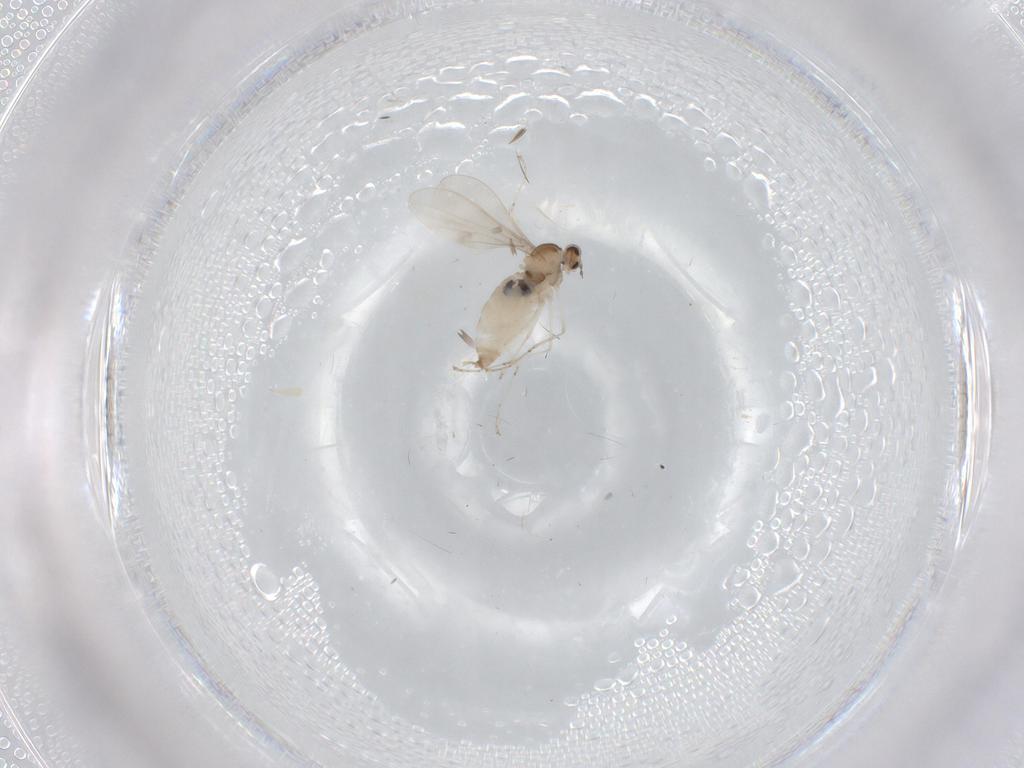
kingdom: Animalia
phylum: Arthropoda
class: Insecta
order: Diptera
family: Cecidomyiidae
